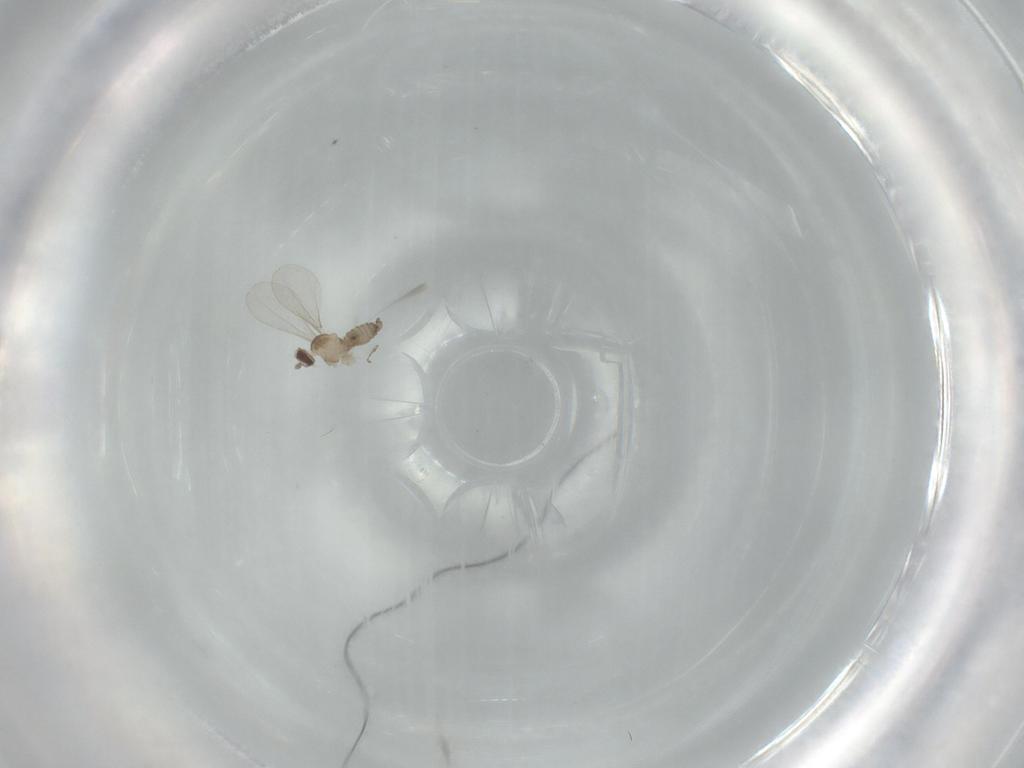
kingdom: Animalia
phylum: Arthropoda
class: Insecta
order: Diptera
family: Cecidomyiidae
